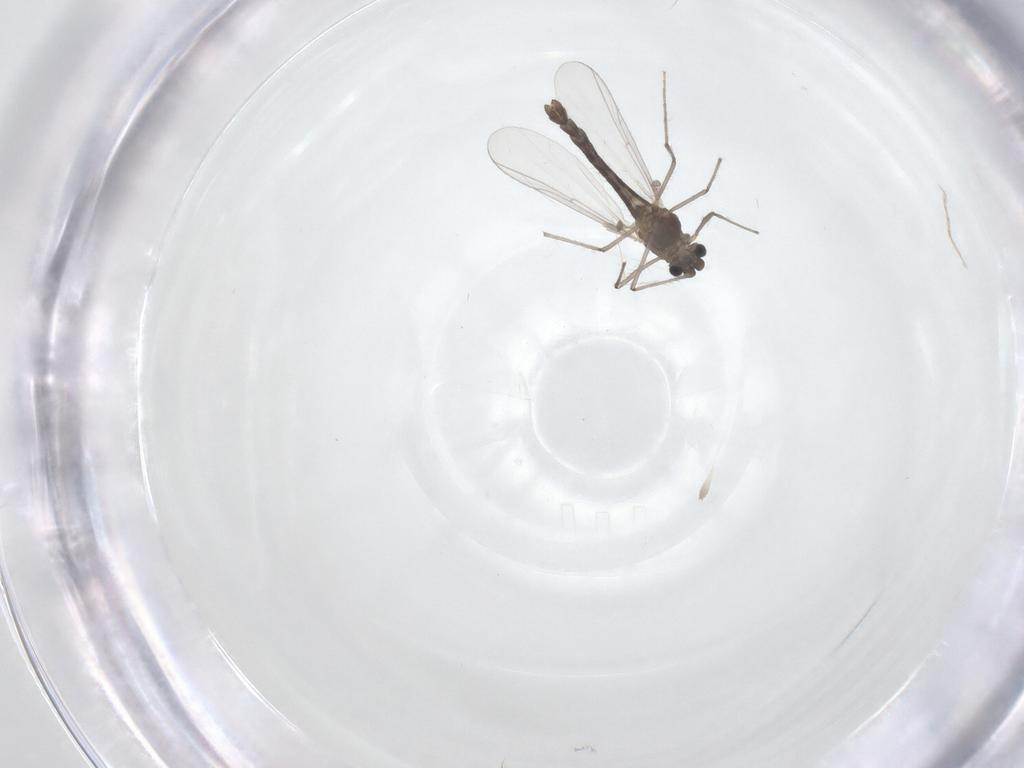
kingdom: Animalia
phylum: Arthropoda
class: Insecta
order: Diptera
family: Chironomidae
